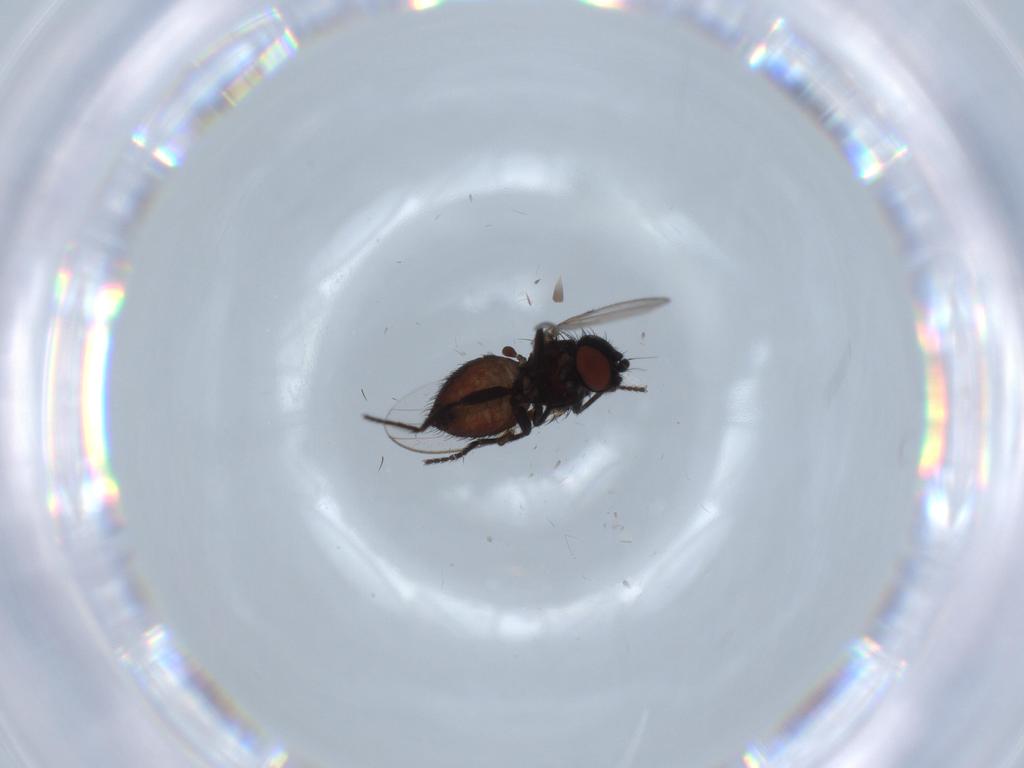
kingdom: Animalia
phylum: Arthropoda
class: Insecta
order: Diptera
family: Milichiidae
